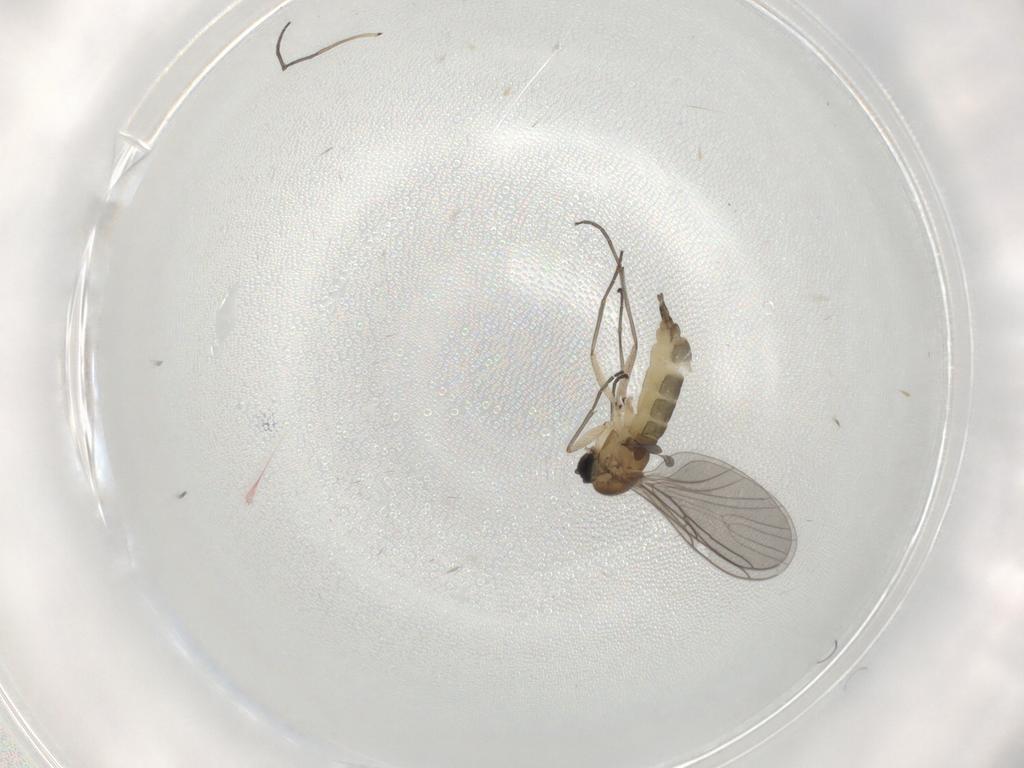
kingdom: Animalia
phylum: Arthropoda
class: Insecta
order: Diptera
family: Sciaridae
